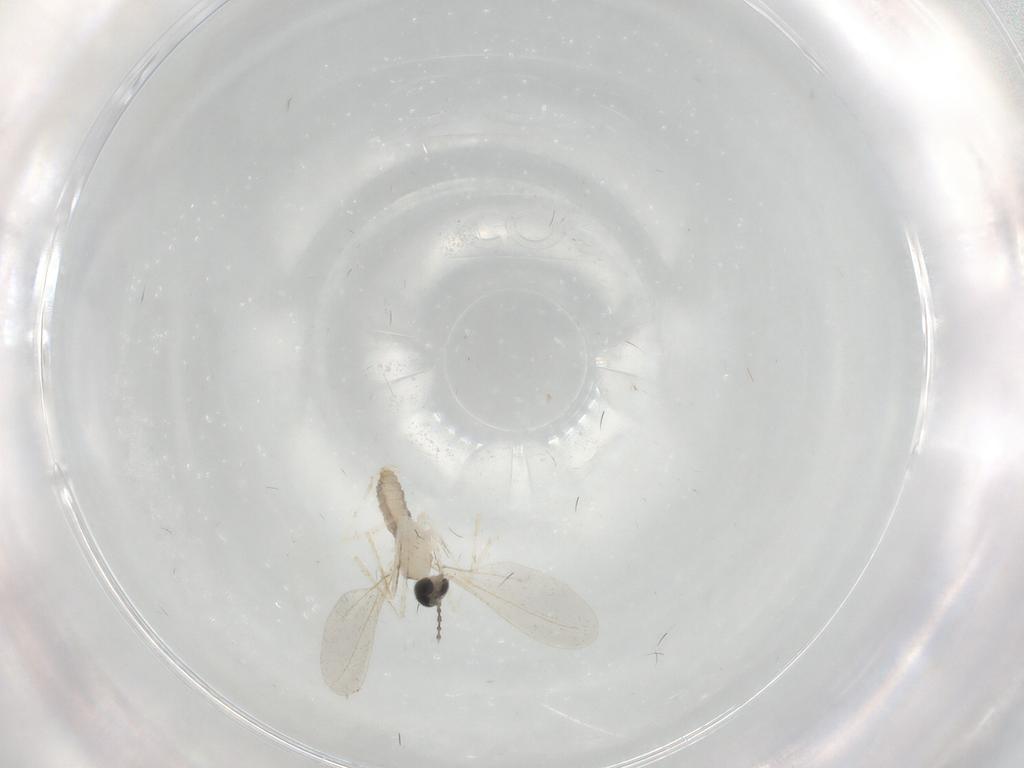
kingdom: Animalia
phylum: Arthropoda
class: Insecta
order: Diptera
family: Cecidomyiidae
